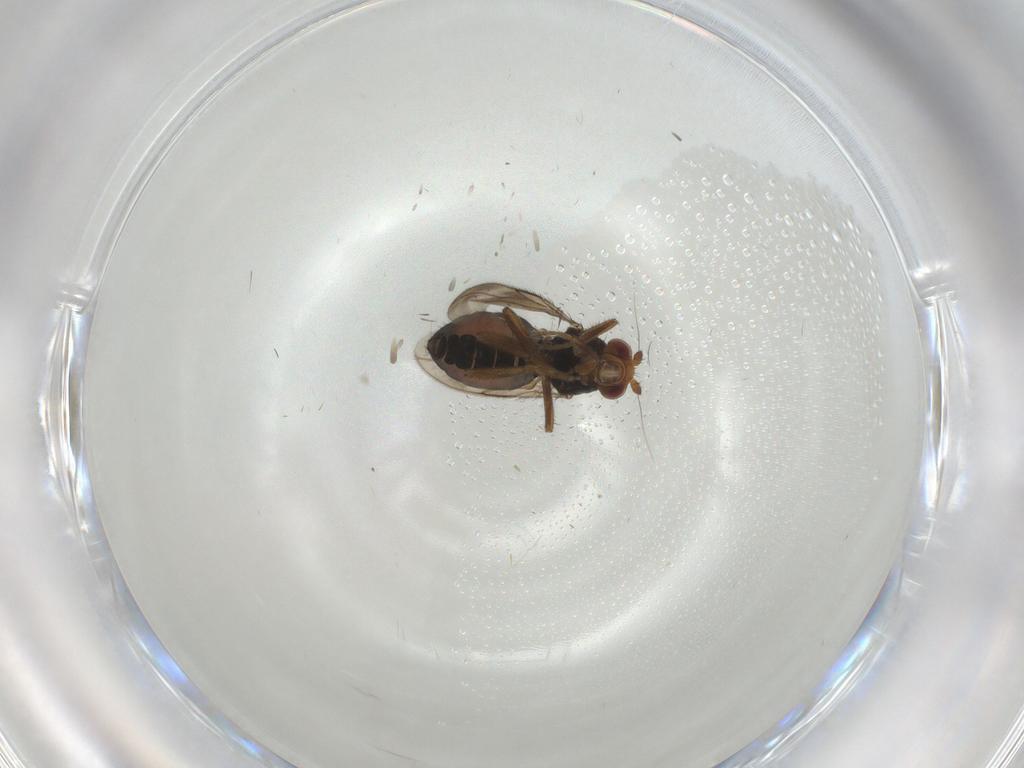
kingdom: Animalia
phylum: Arthropoda
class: Insecta
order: Diptera
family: Sphaeroceridae
